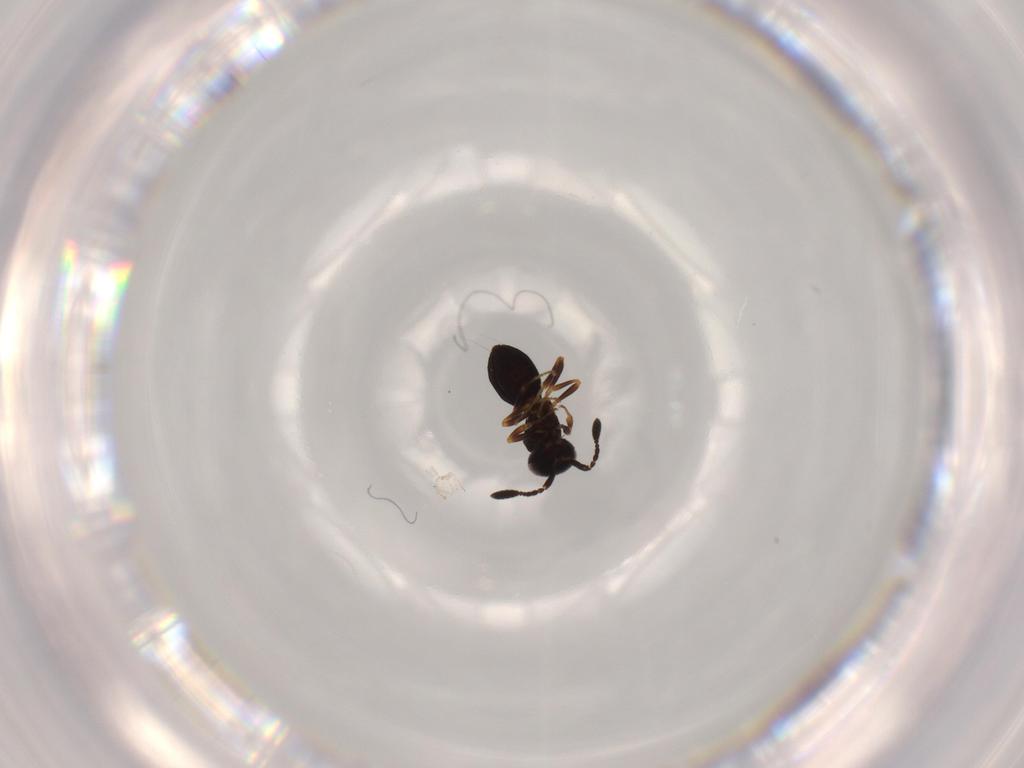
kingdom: Animalia
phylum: Arthropoda
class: Insecta
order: Hymenoptera
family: Scelionidae
